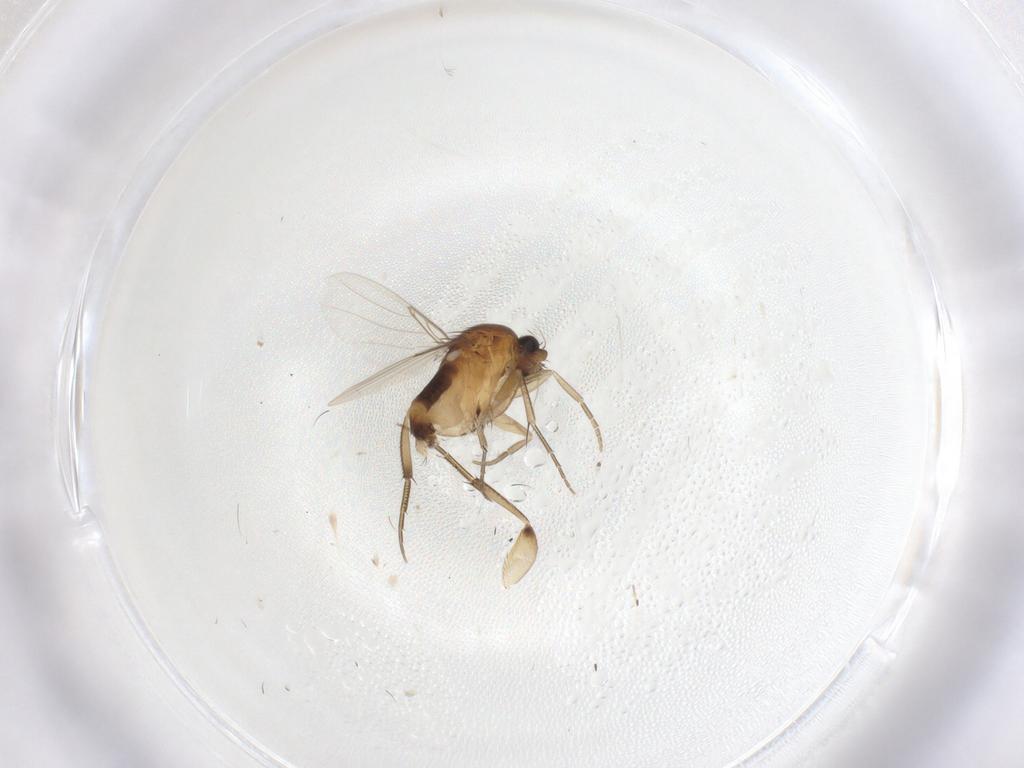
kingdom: Animalia
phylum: Arthropoda
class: Insecta
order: Diptera
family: Phoridae
